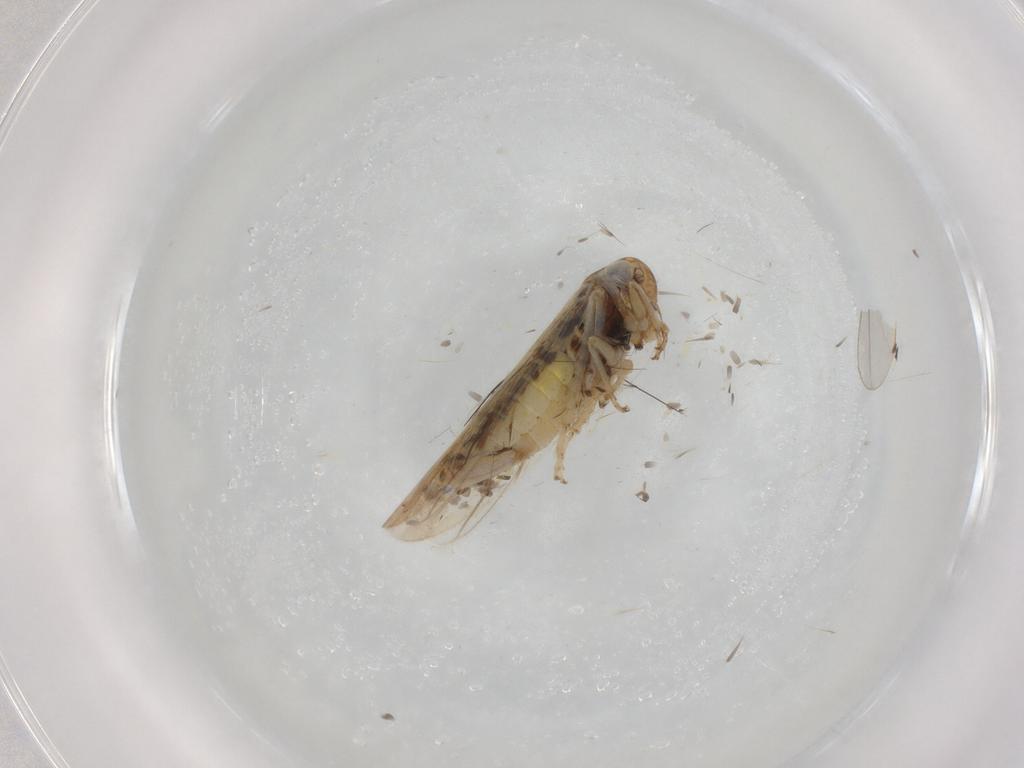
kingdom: Animalia
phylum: Arthropoda
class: Insecta
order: Hemiptera
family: Cicadellidae
